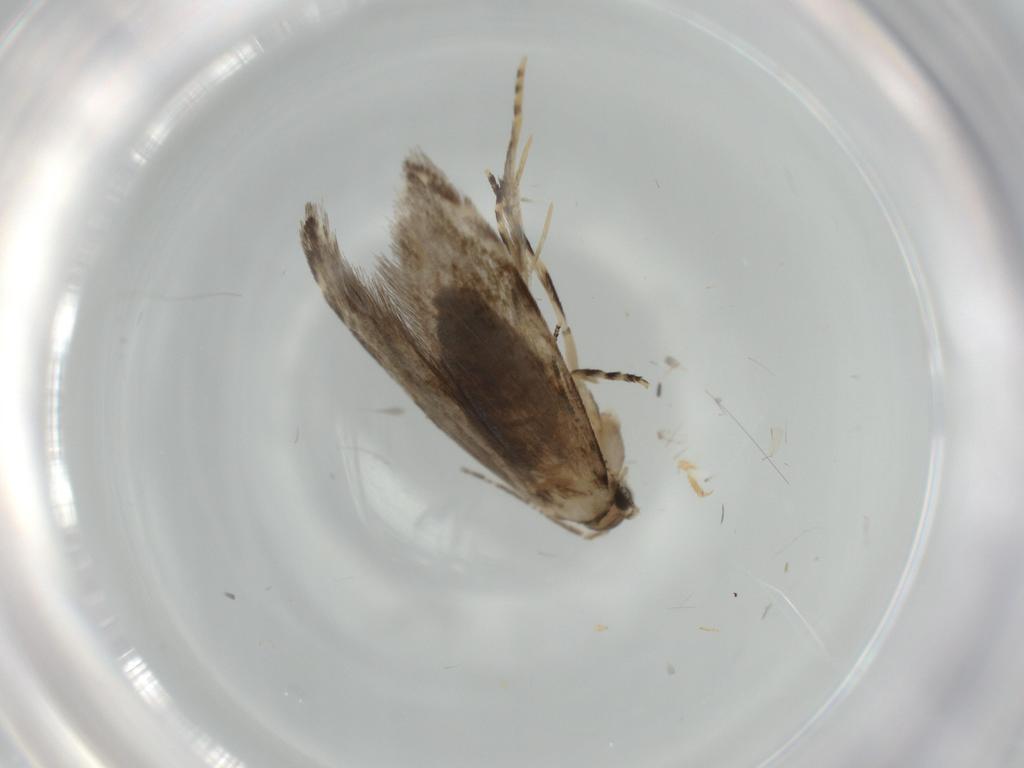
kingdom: Animalia
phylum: Arthropoda
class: Insecta
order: Lepidoptera
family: Tineidae
